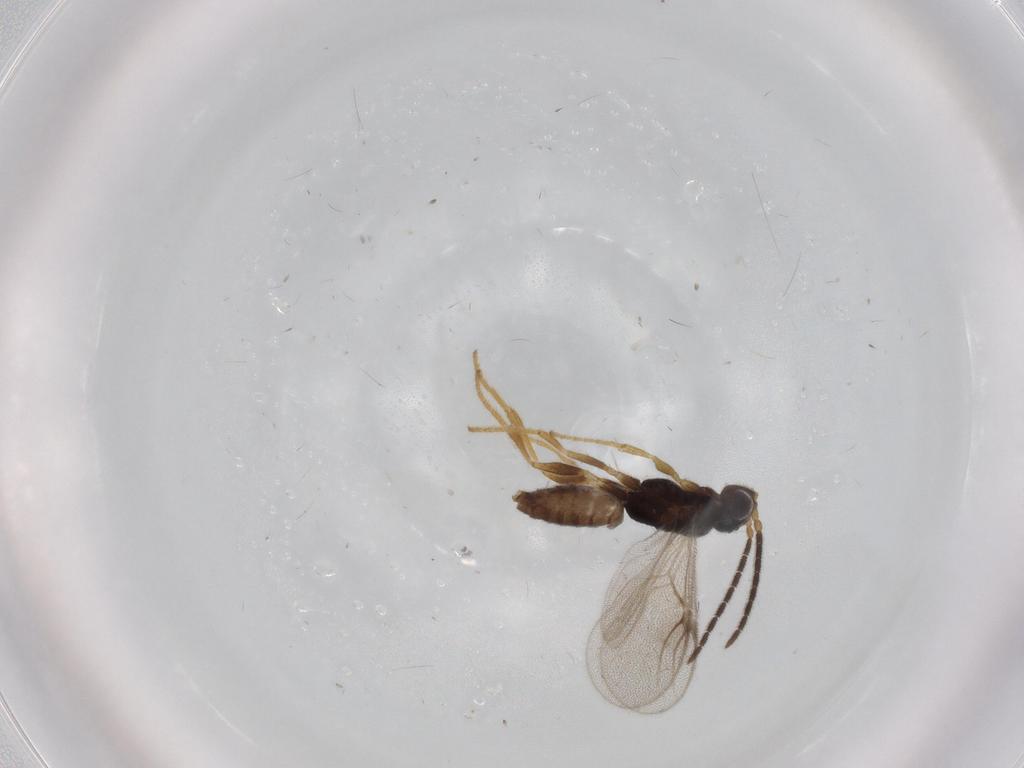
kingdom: Animalia
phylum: Arthropoda
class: Insecta
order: Hymenoptera
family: Dryinidae
